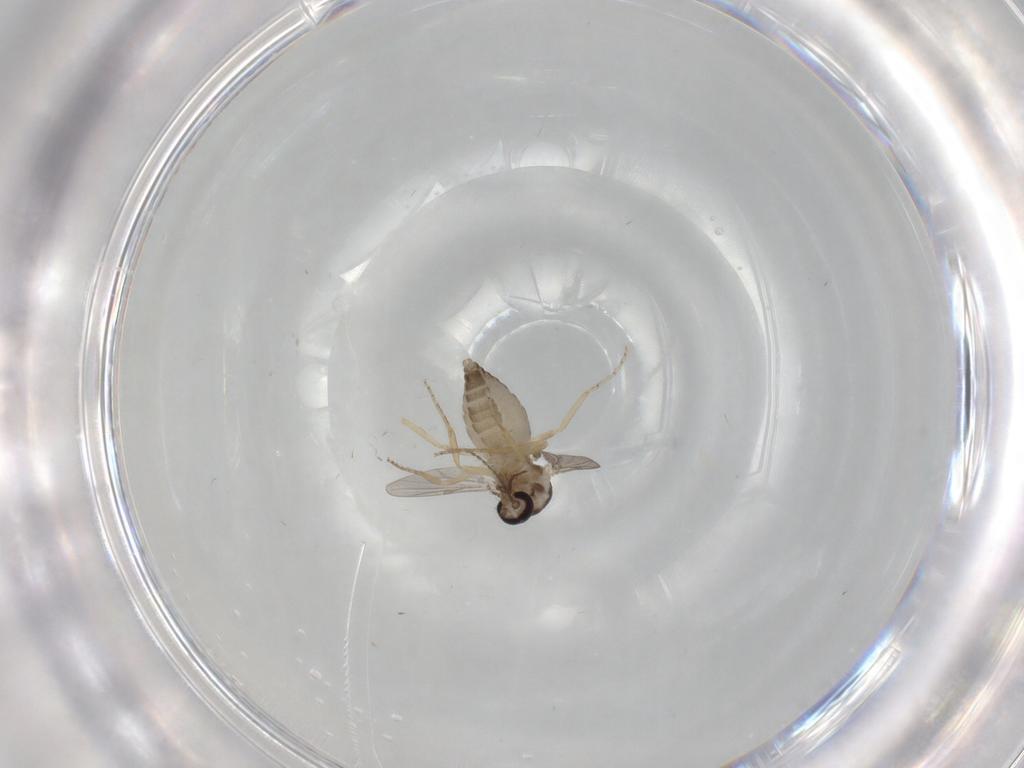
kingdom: Animalia
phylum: Arthropoda
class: Insecta
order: Diptera
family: Ceratopogonidae
